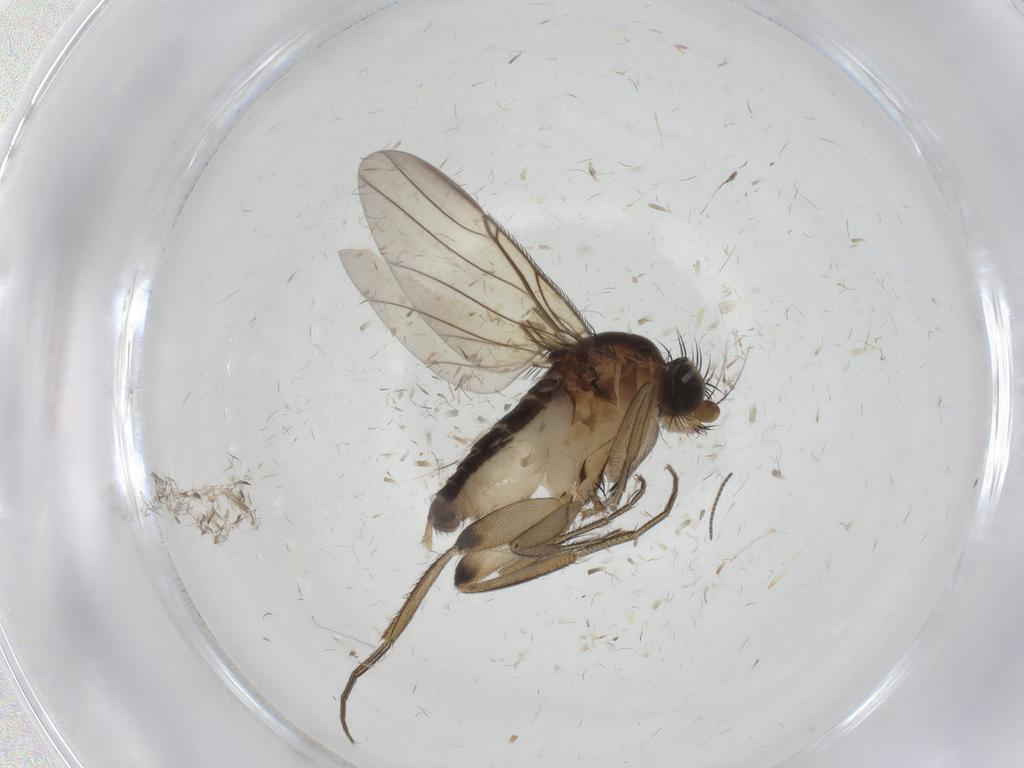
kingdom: Animalia
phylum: Arthropoda
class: Insecta
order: Diptera
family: Phoridae
